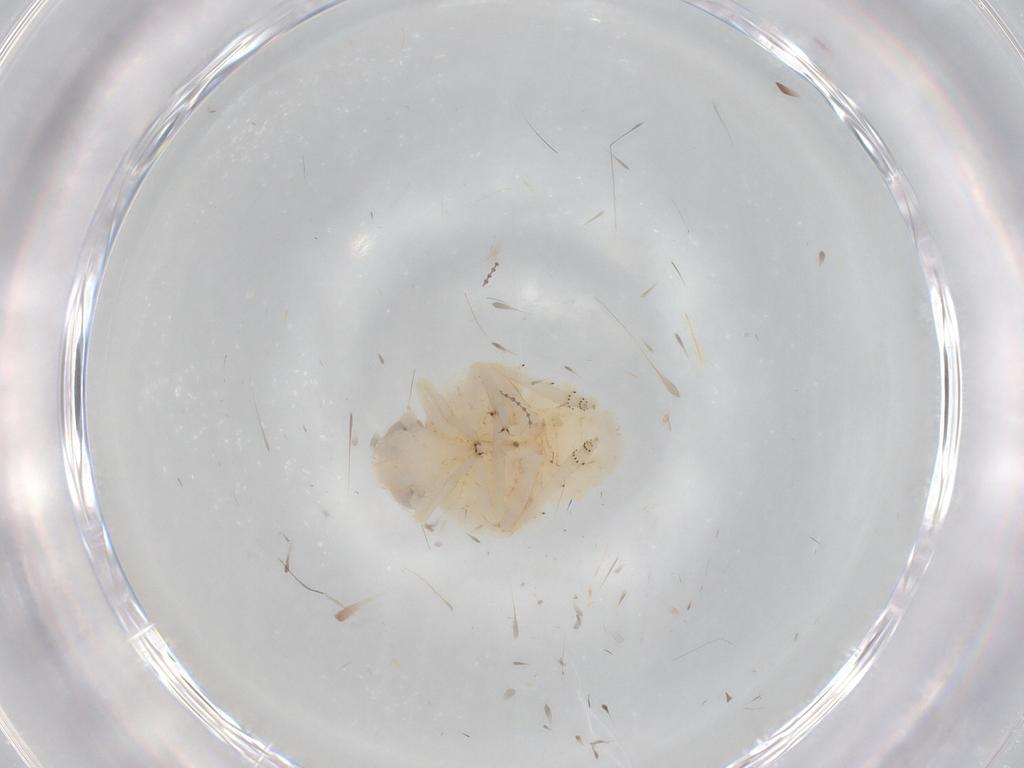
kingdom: Animalia
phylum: Arthropoda
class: Insecta
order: Hemiptera
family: Nogodinidae
